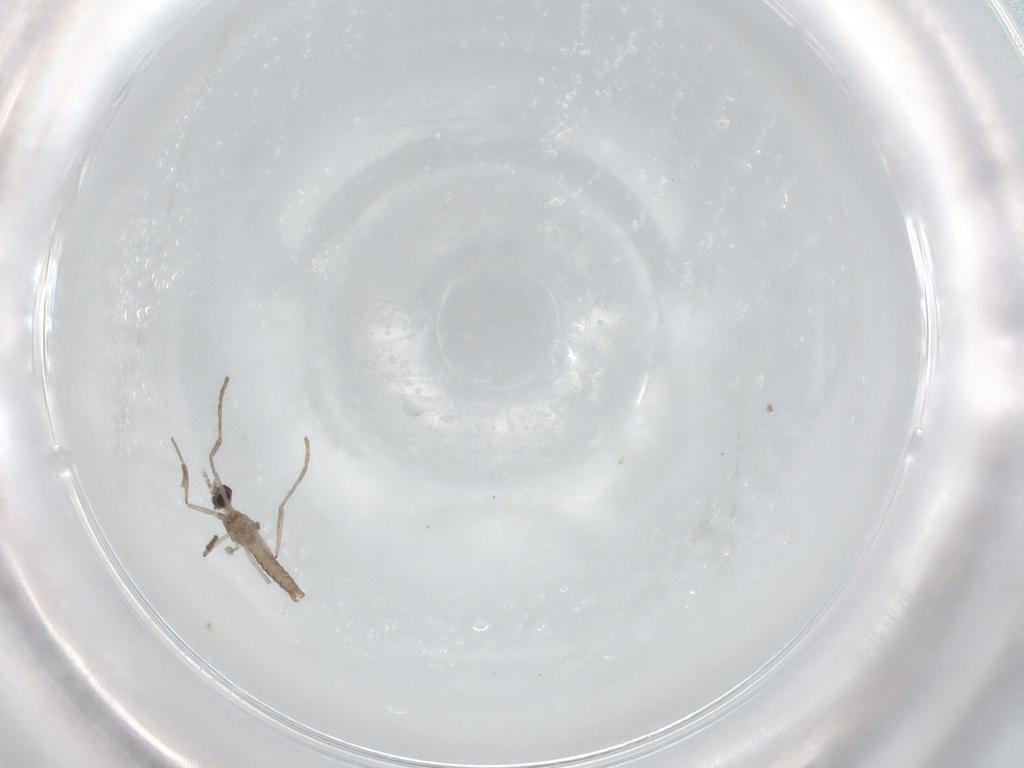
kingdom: Animalia
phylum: Arthropoda
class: Insecta
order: Diptera
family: Cecidomyiidae
